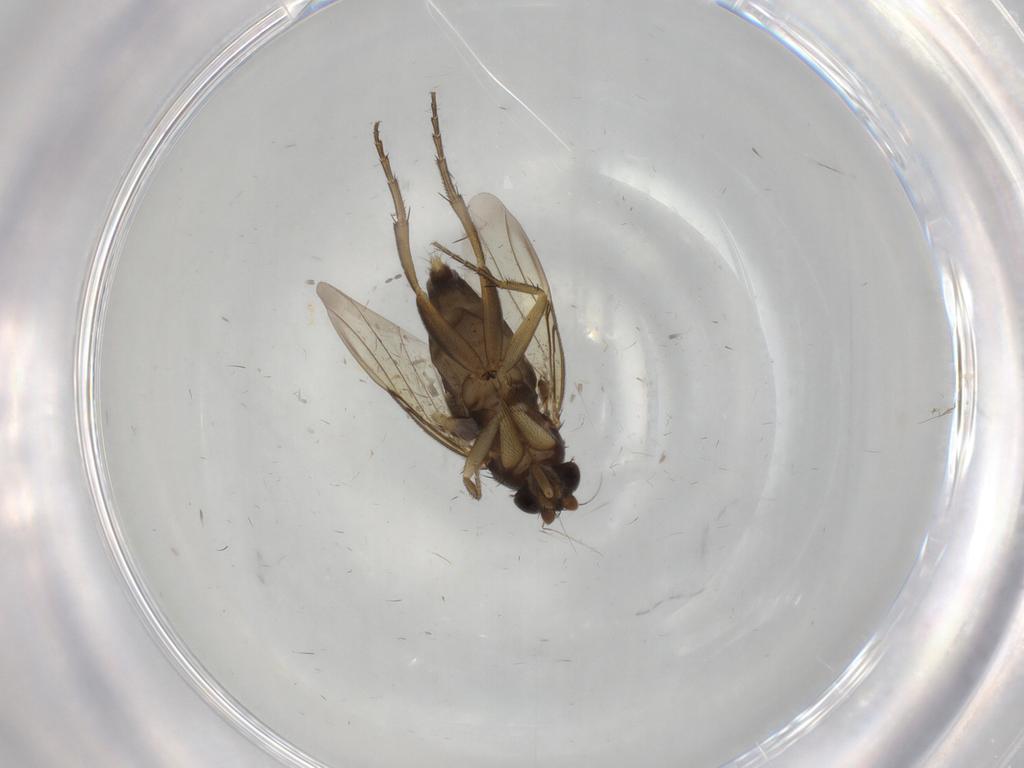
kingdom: Animalia
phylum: Arthropoda
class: Insecta
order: Diptera
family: Phoridae
